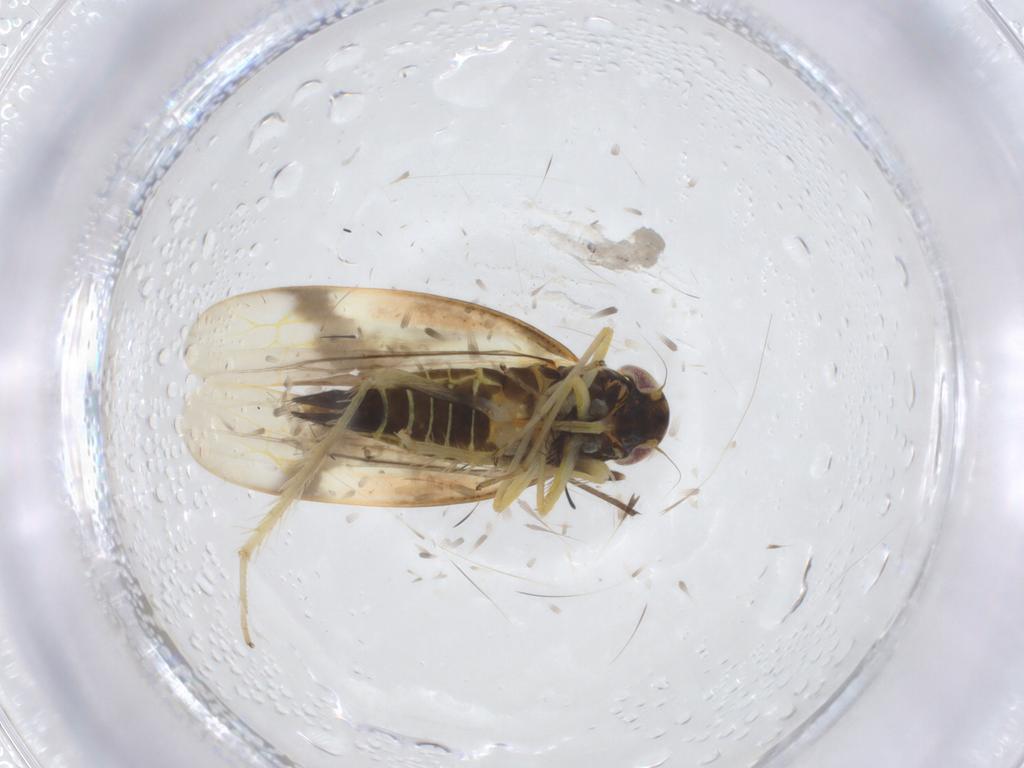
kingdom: Animalia
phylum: Arthropoda
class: Insecta
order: Hemiptera
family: Cicadellidae
